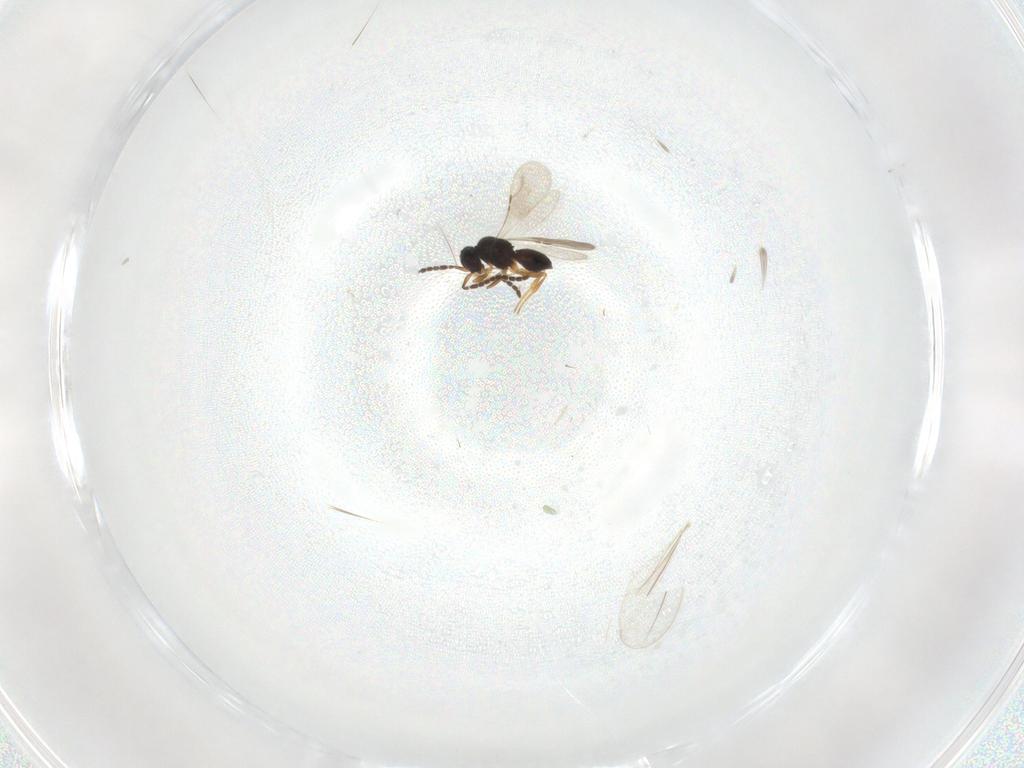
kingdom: Animalia
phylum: Arthropoda
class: Insecta
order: Hymenoptera
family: Ceraphronidae
